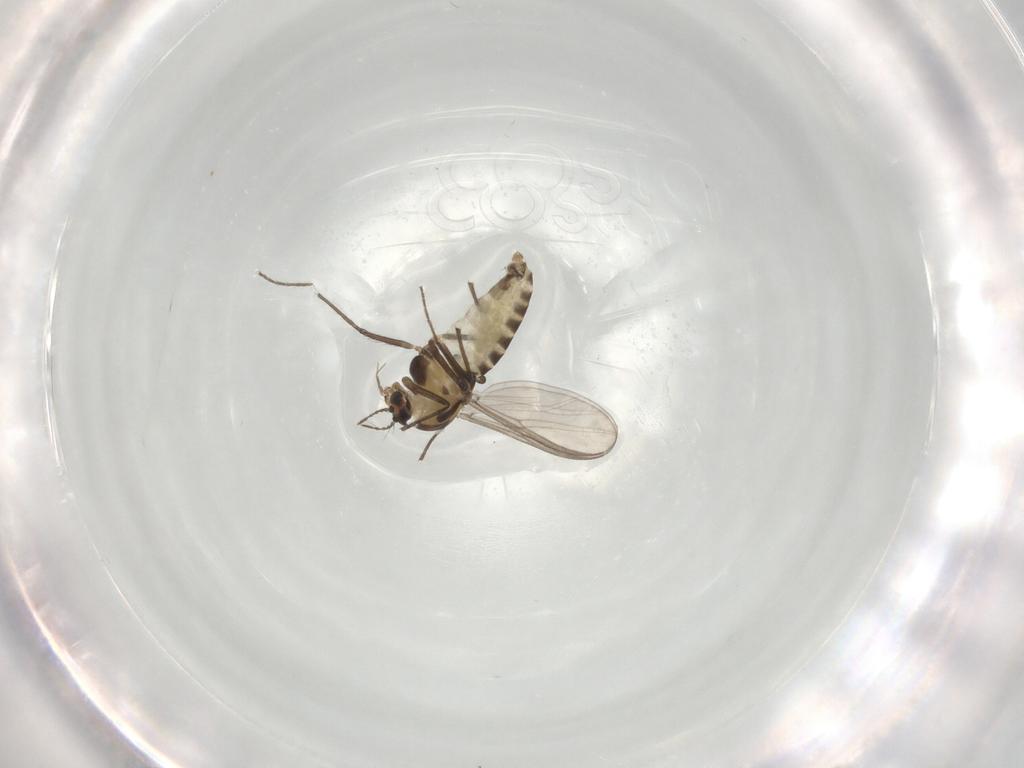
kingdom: Animalia
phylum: Arthropoda
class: Insecta
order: Diptera
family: Chironomidae
